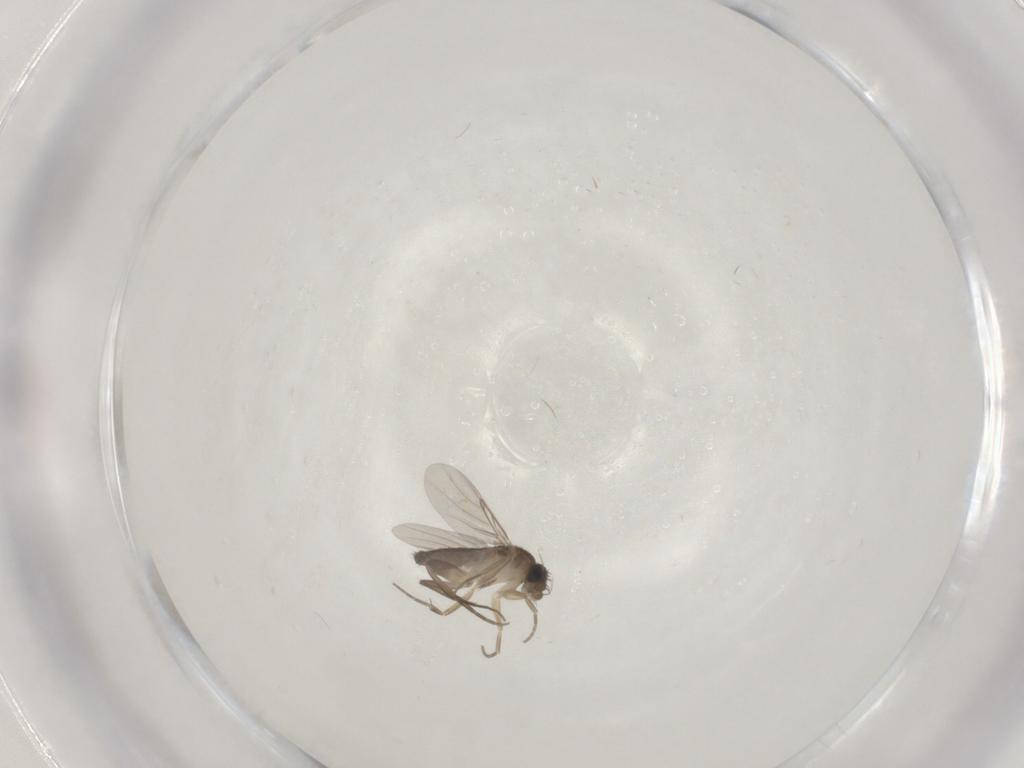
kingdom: Animalia
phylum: Arthropoda
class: Insecta
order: Diptera
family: Phoridae
